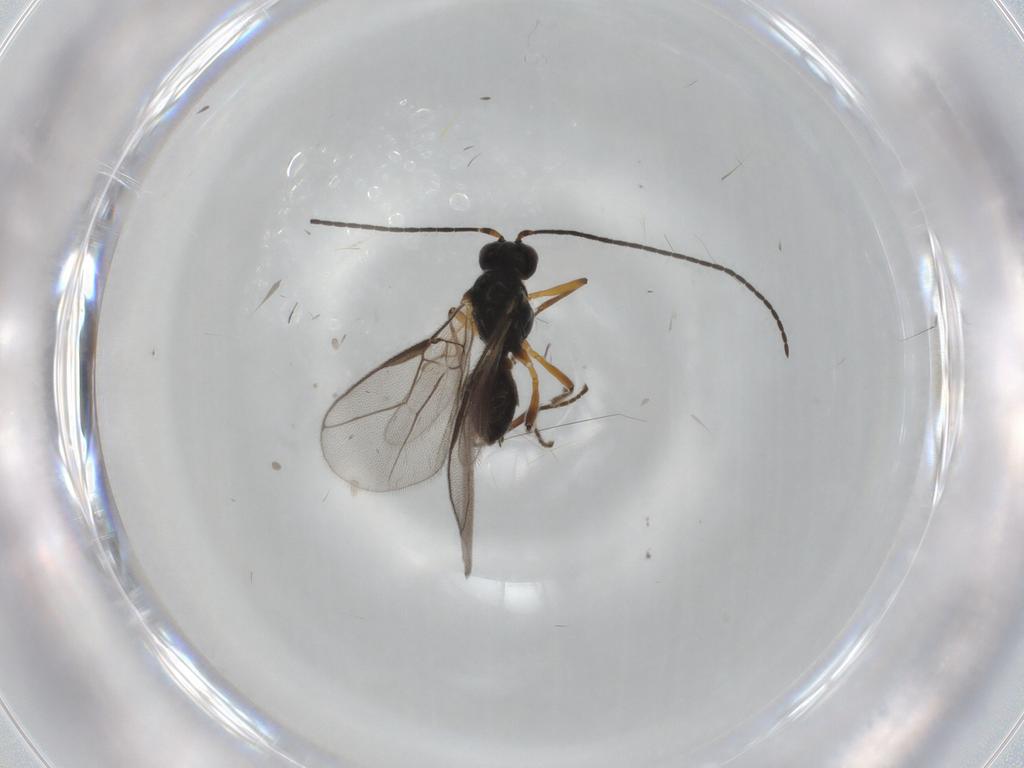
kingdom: Animalia
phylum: Arthropoda
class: Insecta
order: Hymenoptera
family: Braconidae
